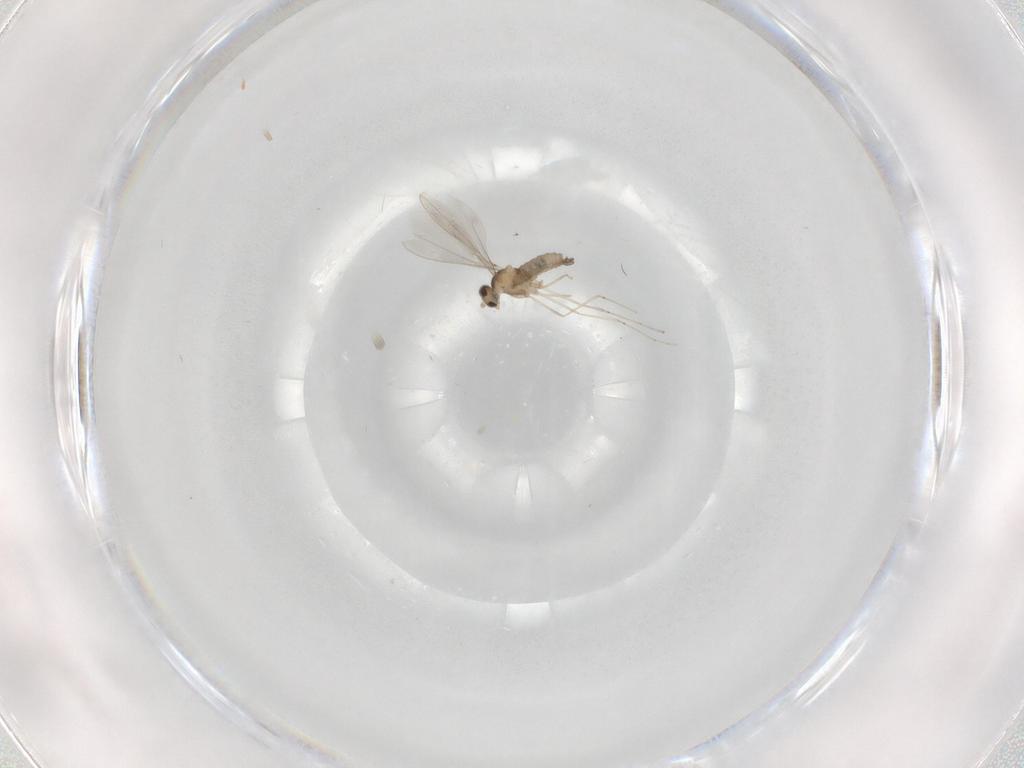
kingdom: Animalia
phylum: Arthropoda
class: Insecta
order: Diptera
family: Cecidomyiidae
